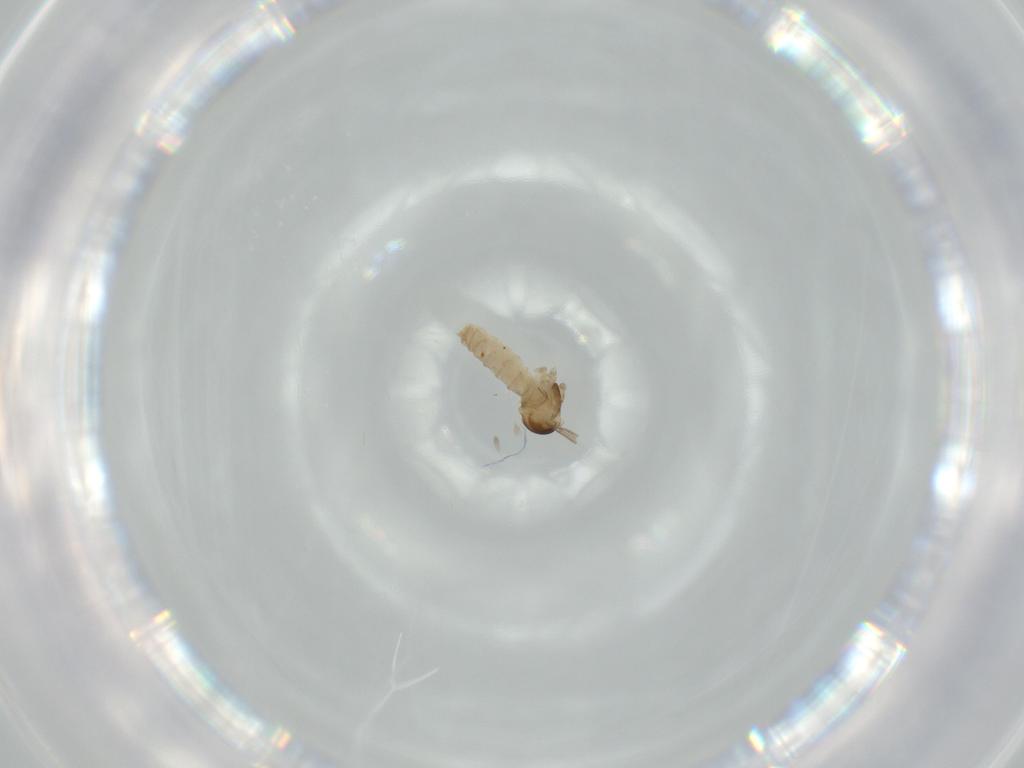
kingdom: Animalia
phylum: Arthropoda
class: Insecta
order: Diptera
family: Cecidomyiidae
